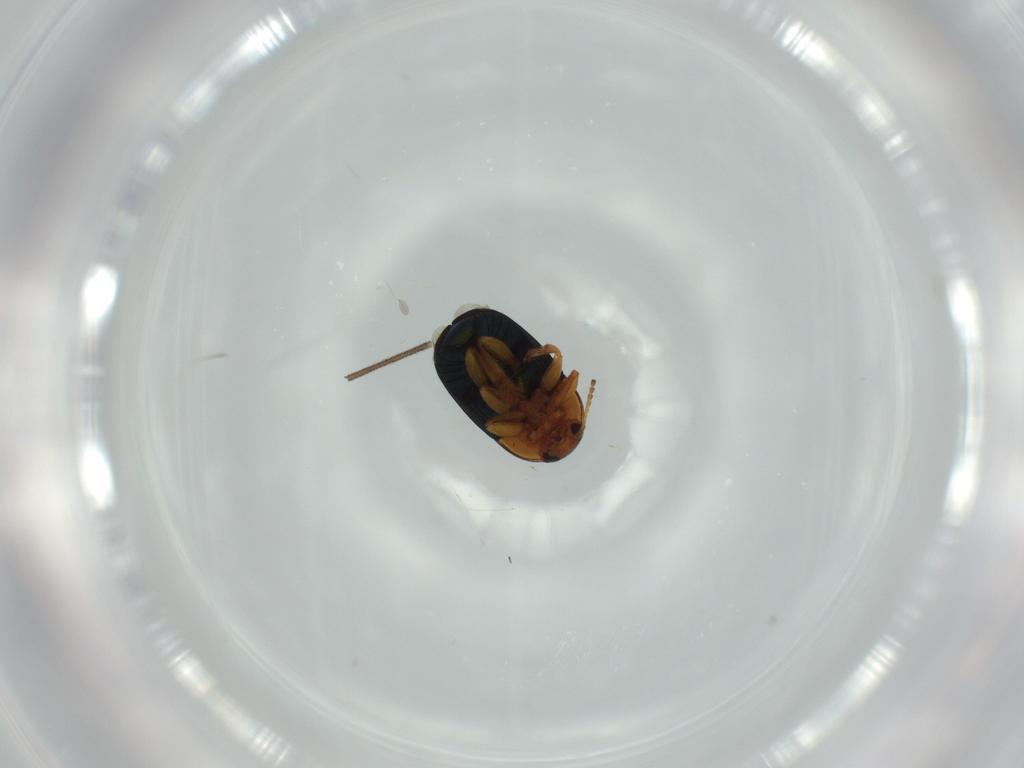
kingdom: Animalia
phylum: Arthropoda
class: Insecta
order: Coleoptera
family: Chrysomelidae
